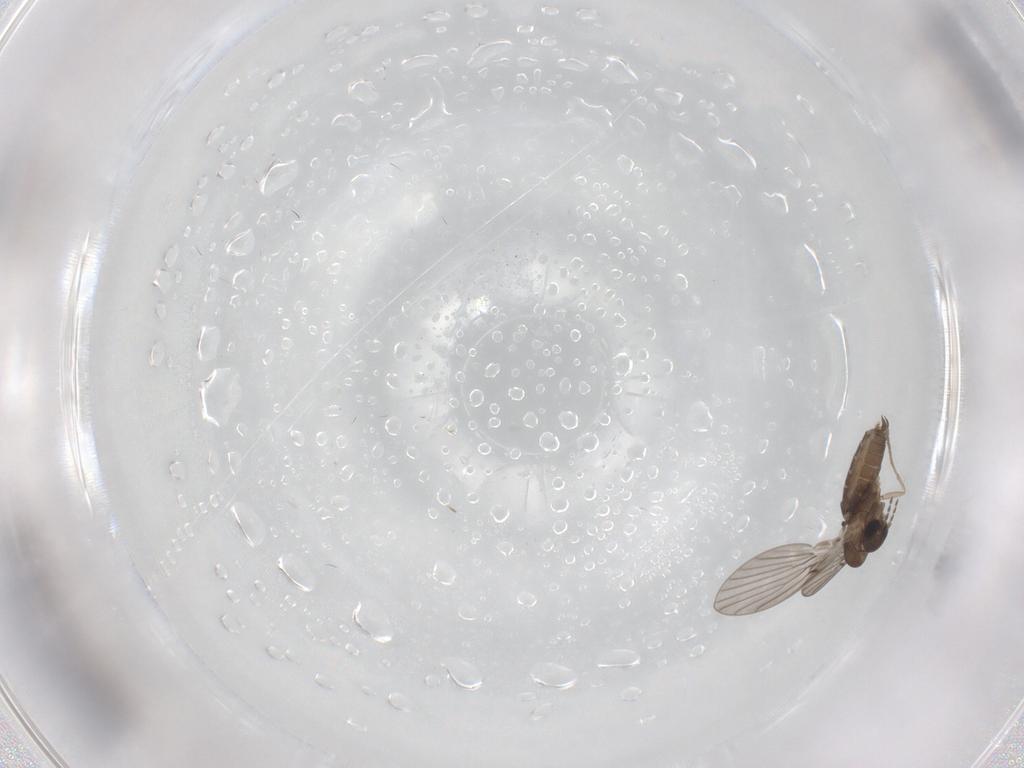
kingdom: Animalia
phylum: Arthropoda
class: Insecta
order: Diptera
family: Cecidomyiidae
